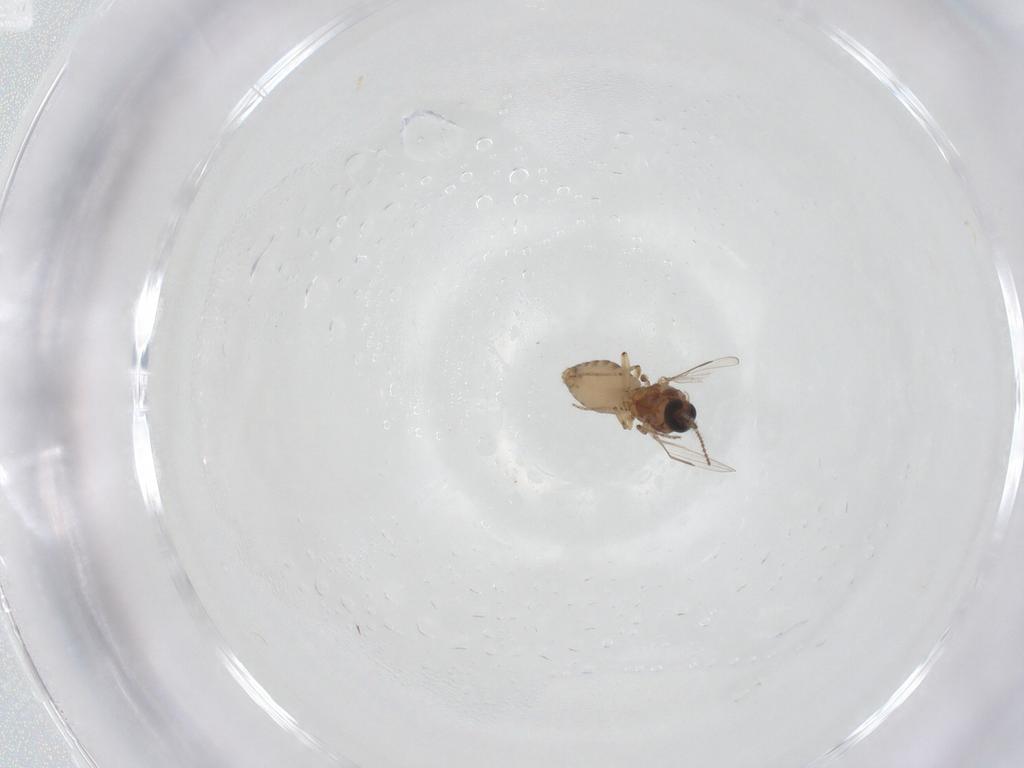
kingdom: Animalia
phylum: Arthropoda
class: Insecta
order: Diptera
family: Ceratopogonidae
